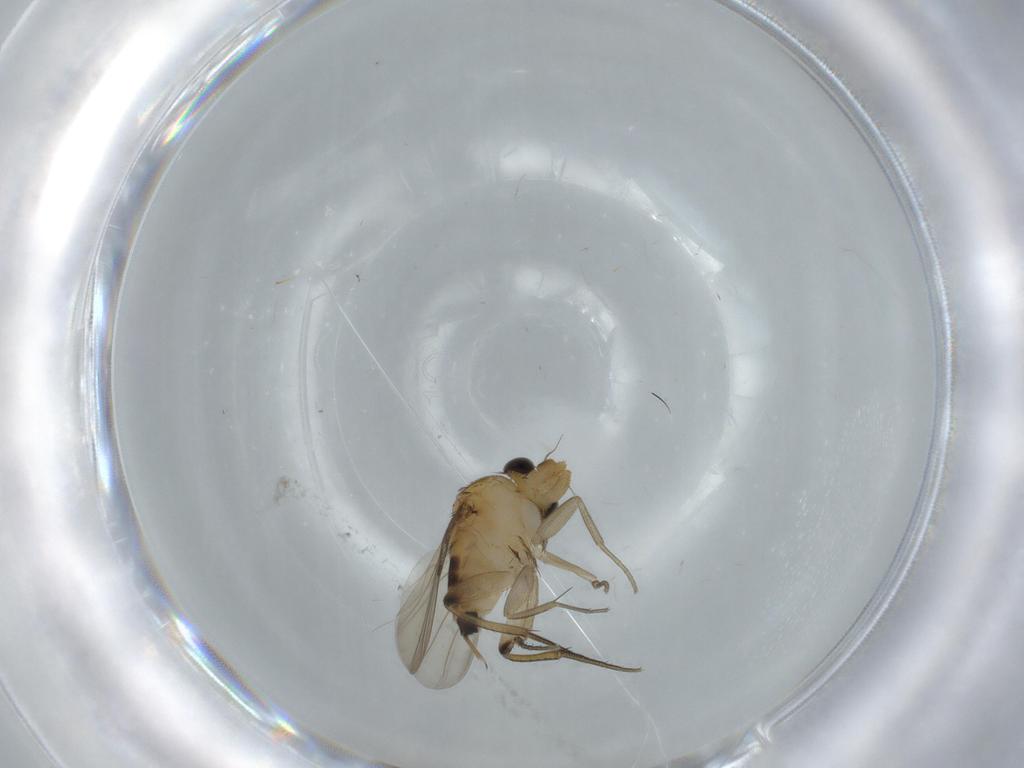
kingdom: Animalia
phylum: Arthropoda
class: Insecta
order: Diptera
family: Phoridae
